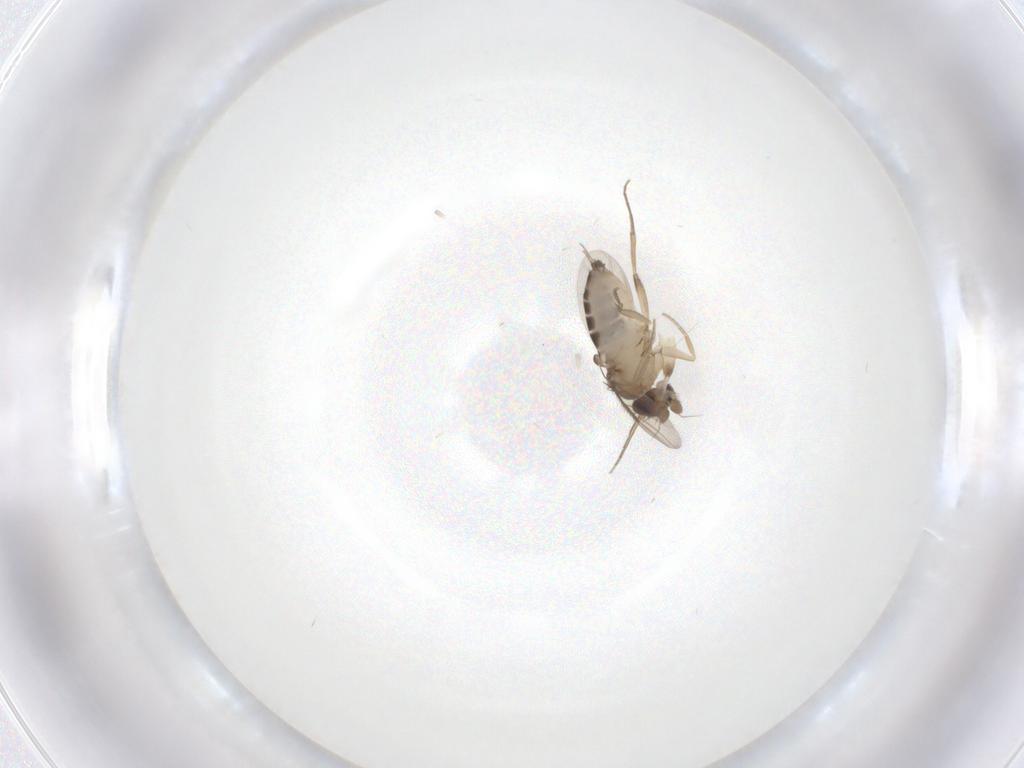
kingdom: Animalia
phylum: Arthropoda
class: Insecta
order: Diptera
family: Phoridae
